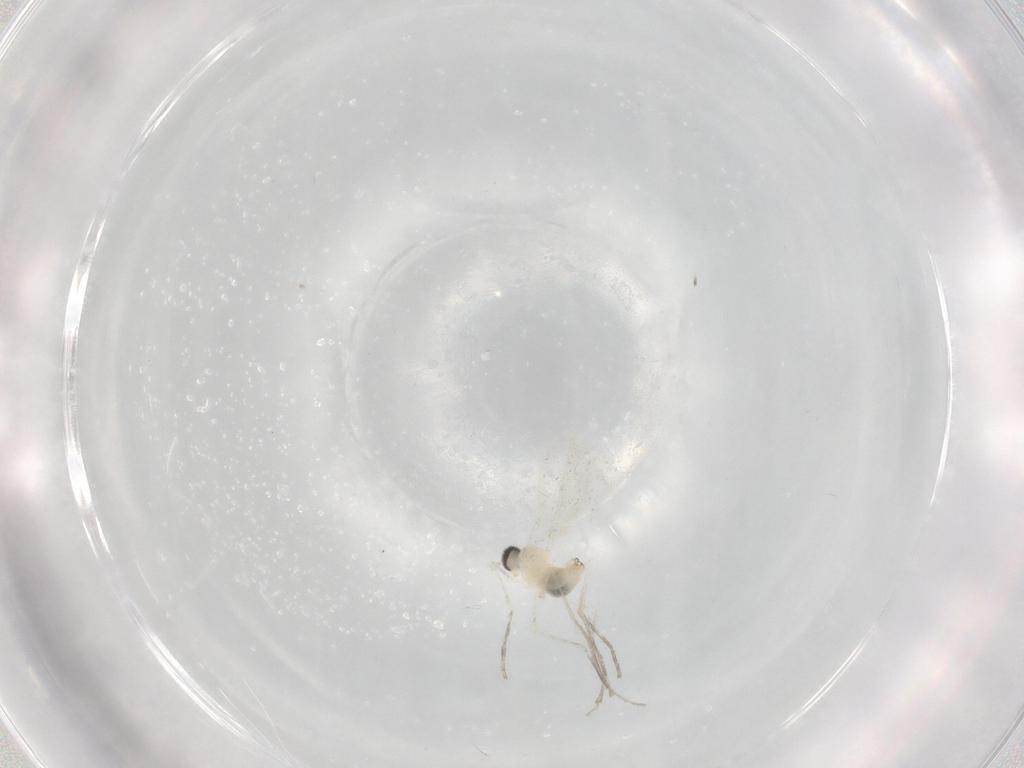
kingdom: Animalia
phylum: Arthropoda
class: Insecta
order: Diptera
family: Cecidomyiidae
